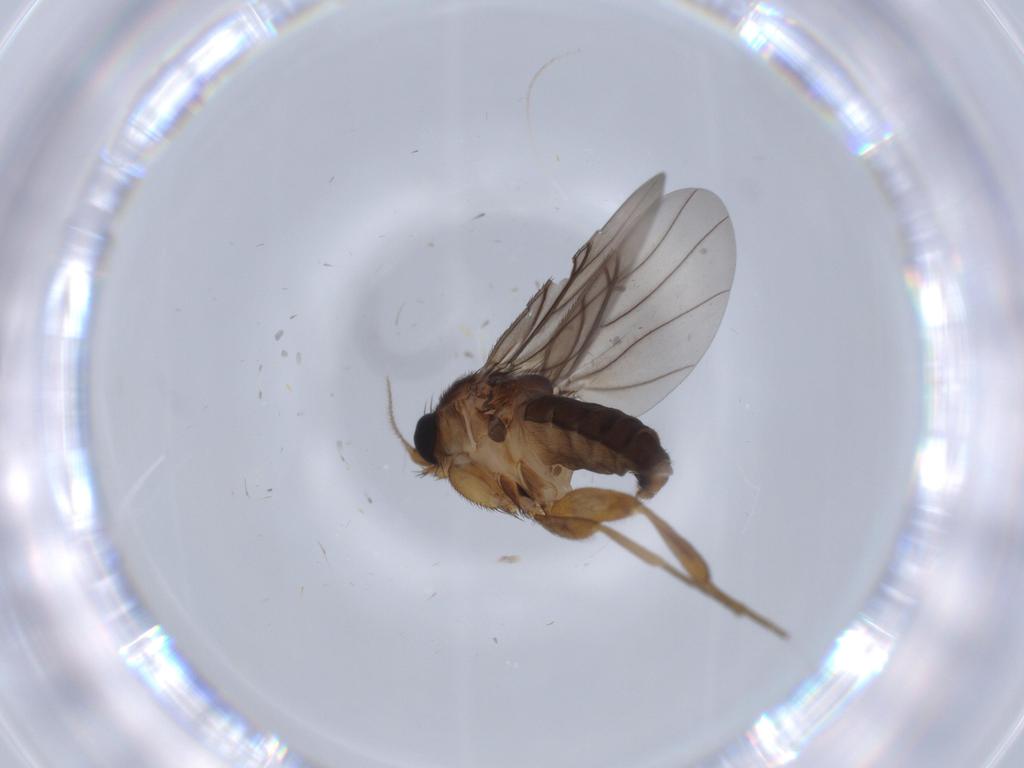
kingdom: Animalia
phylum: Arthropoda
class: Insecta
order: Diptera
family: Phoridae
